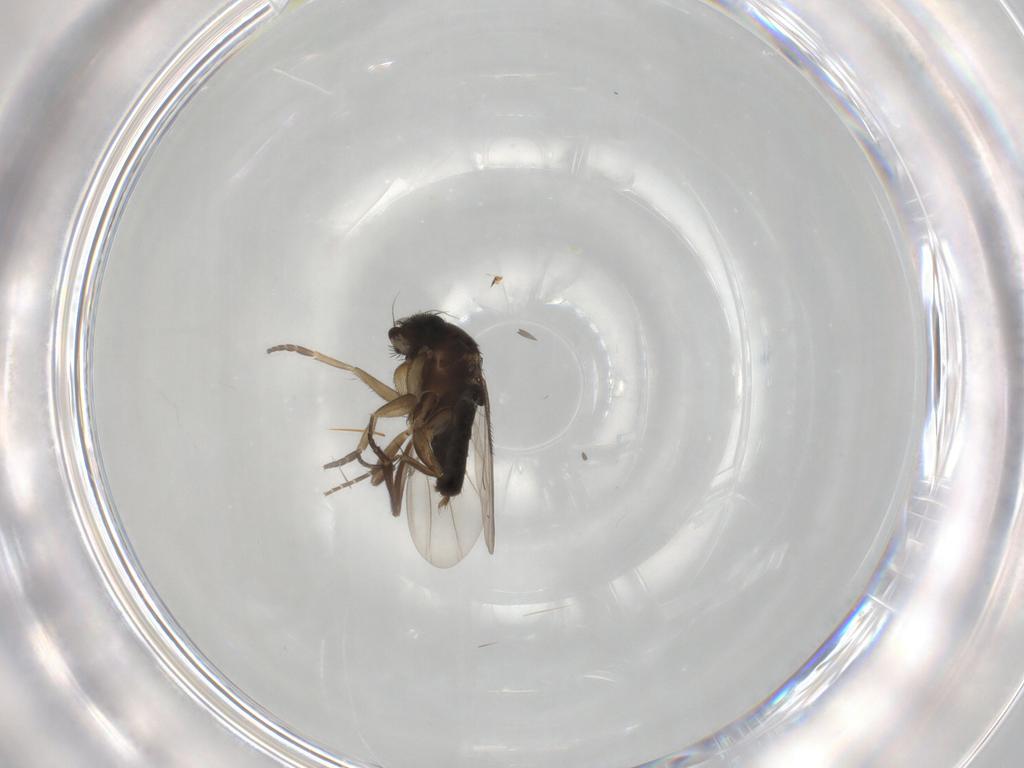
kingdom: Animalia
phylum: Arthropoda
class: Insecta
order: Diptera
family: Phoridae
